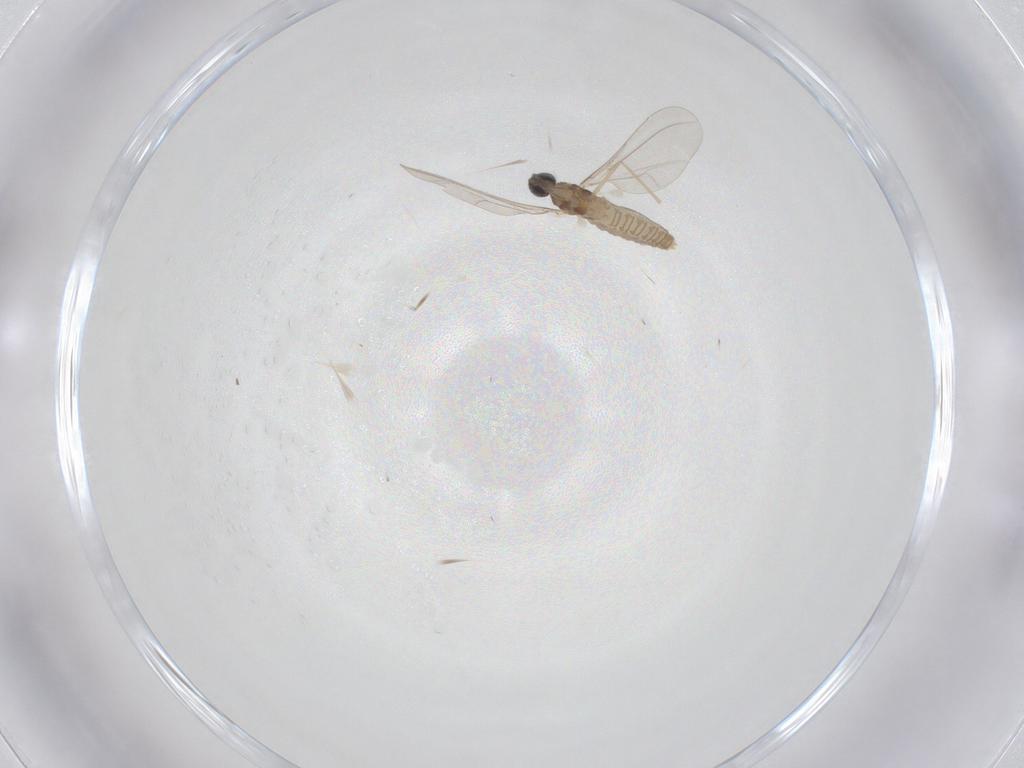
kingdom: Animalia
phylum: Arthropoda
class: Insecta
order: Diptera
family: Cecidomyiidae
